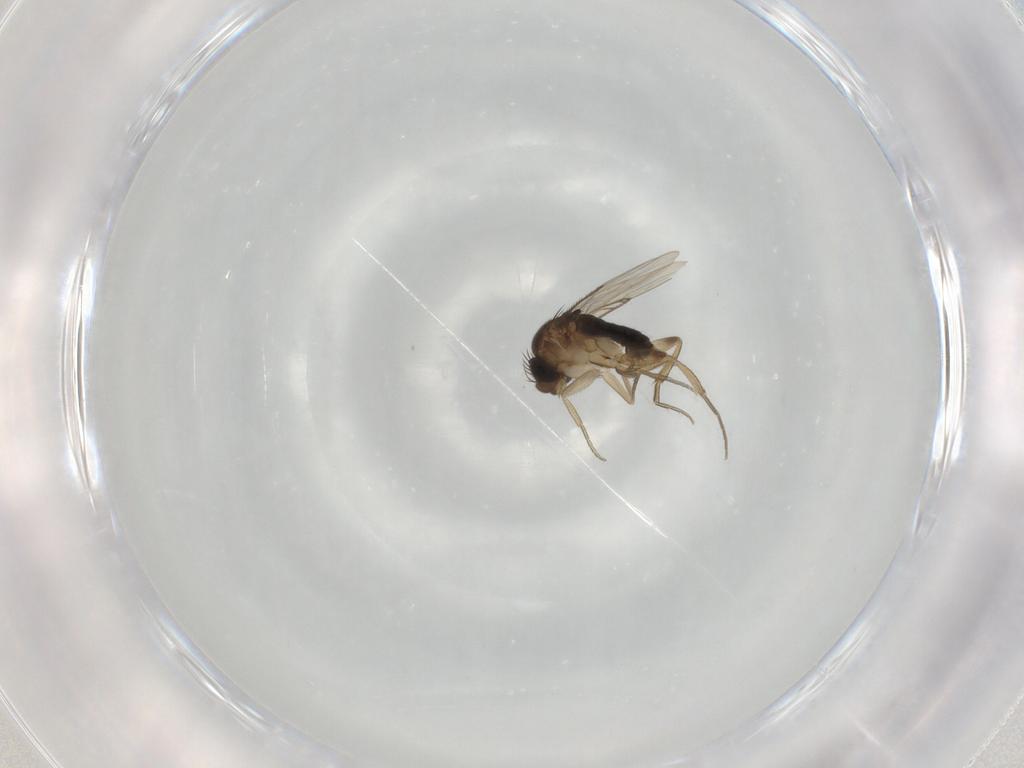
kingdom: Animalia
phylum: Arthropoda
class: Insecta
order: Diptera
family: Phoridae
